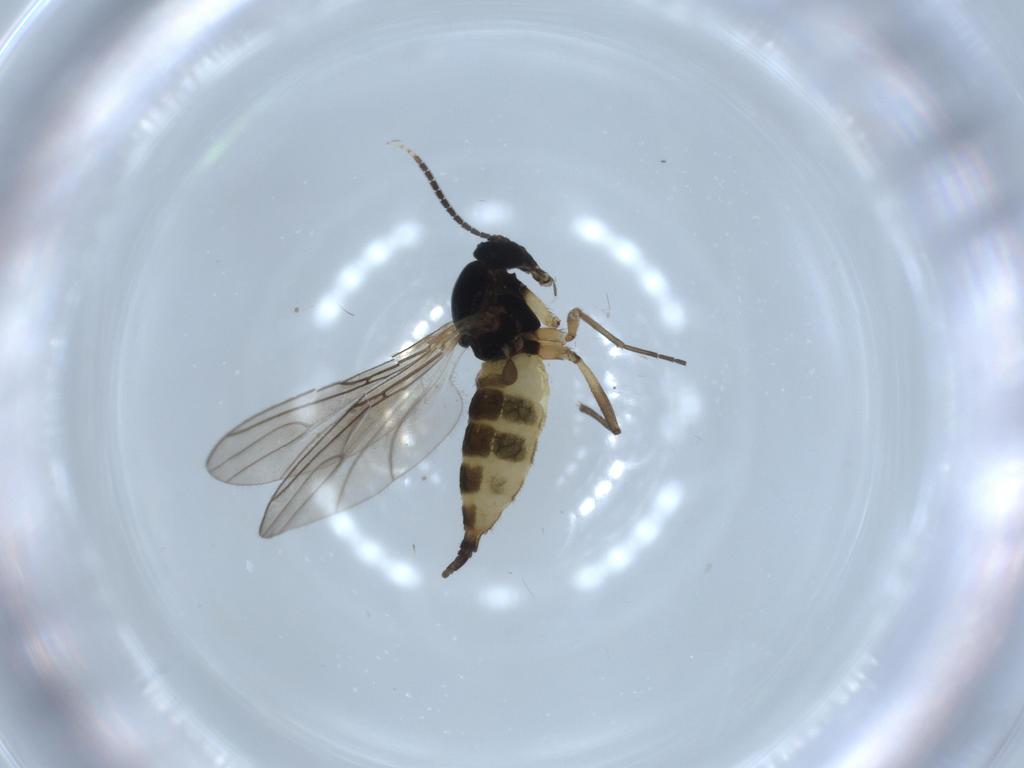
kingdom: Animalia
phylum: Arthropoda
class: Insecta
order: Diptera
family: Sciaridae
